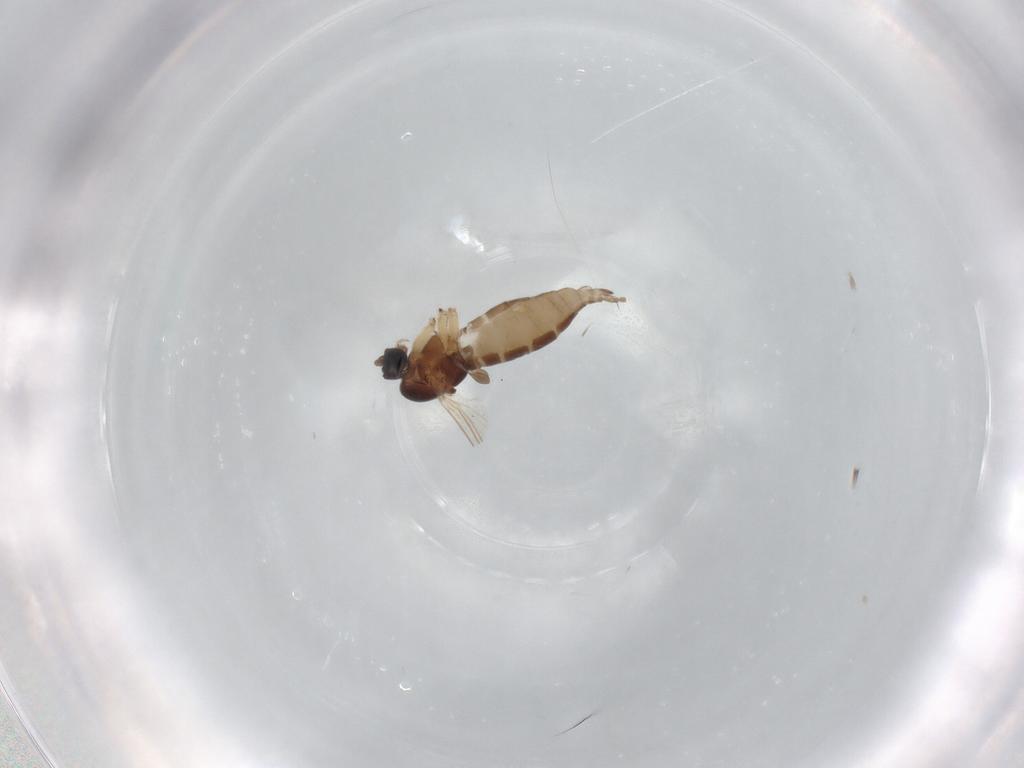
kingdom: Animalia
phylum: Arthropoda
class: Insecta
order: Diptera
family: Sciaridae
